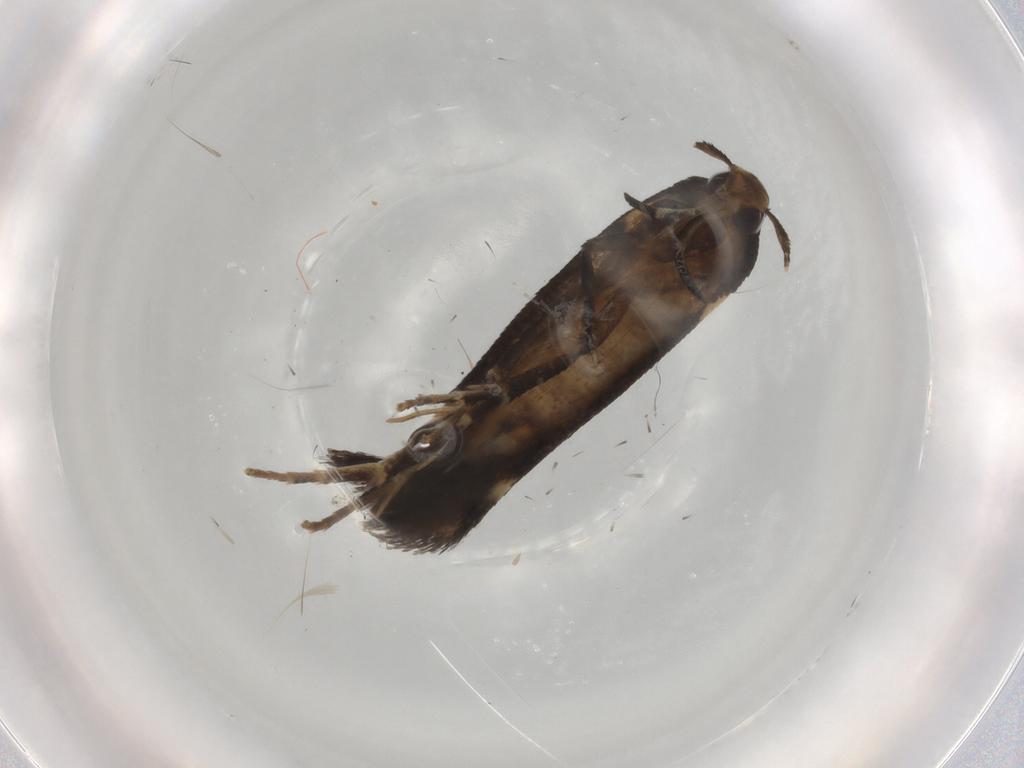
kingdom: Animalia
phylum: Arthropoda
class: Insecta
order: Lepidoptera
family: Cosmopterigidae
